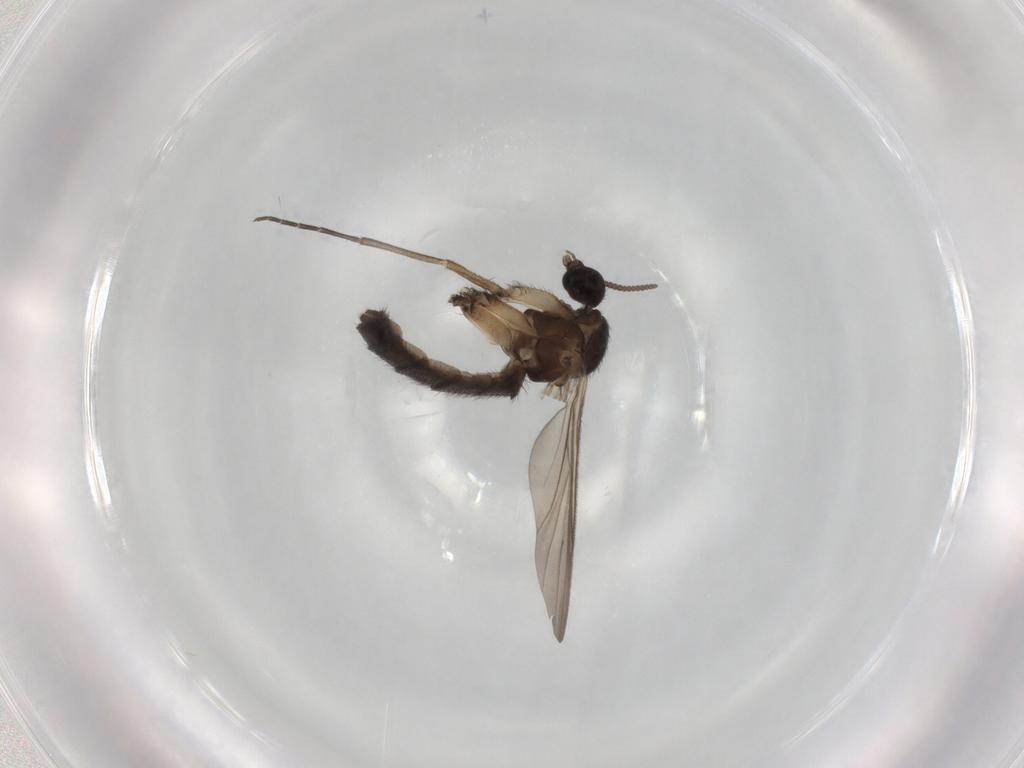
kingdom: Animalia
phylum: Arthropoda
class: Insecta
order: Diptera
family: Keroplatidae
